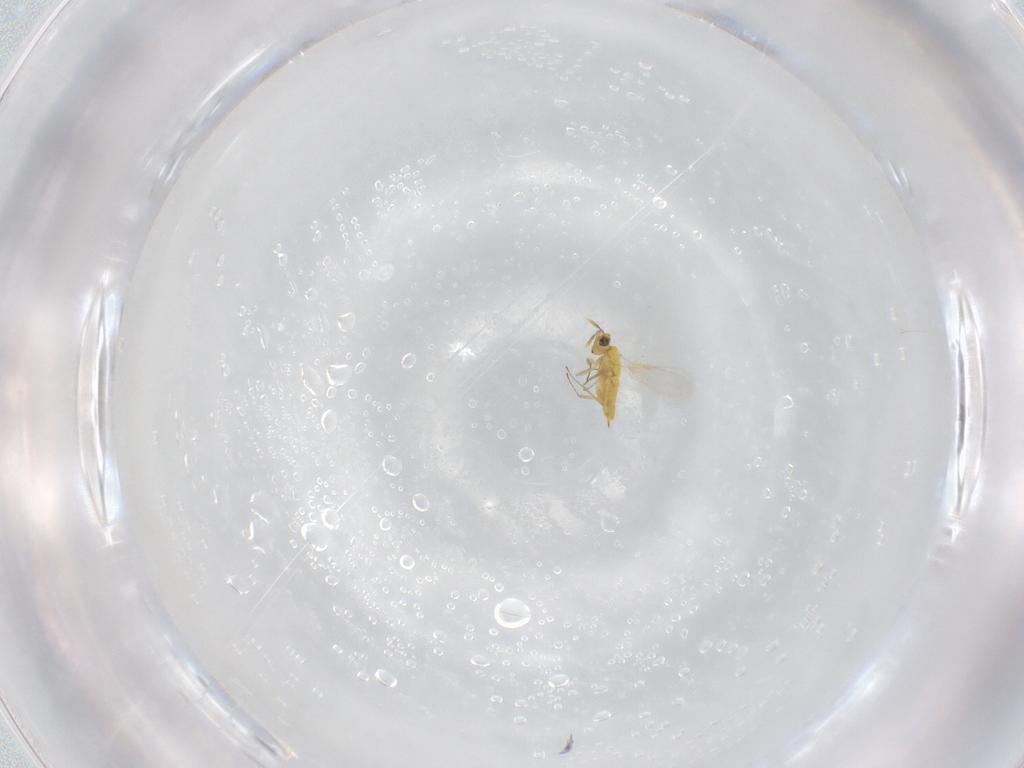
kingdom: Animalia
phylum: Arthropoda
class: Insecta
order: Hymenoptera
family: Aphelinidae
